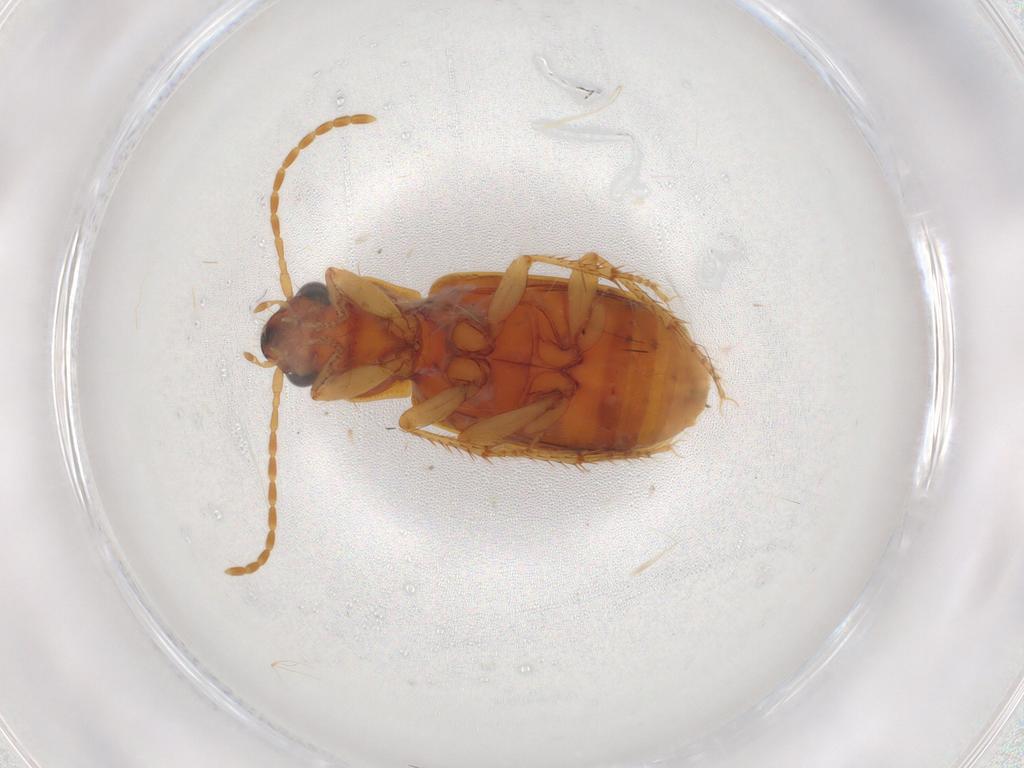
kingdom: Animalia
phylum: Arthropoda
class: Insecta
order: Coleoptera
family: Carabidae
